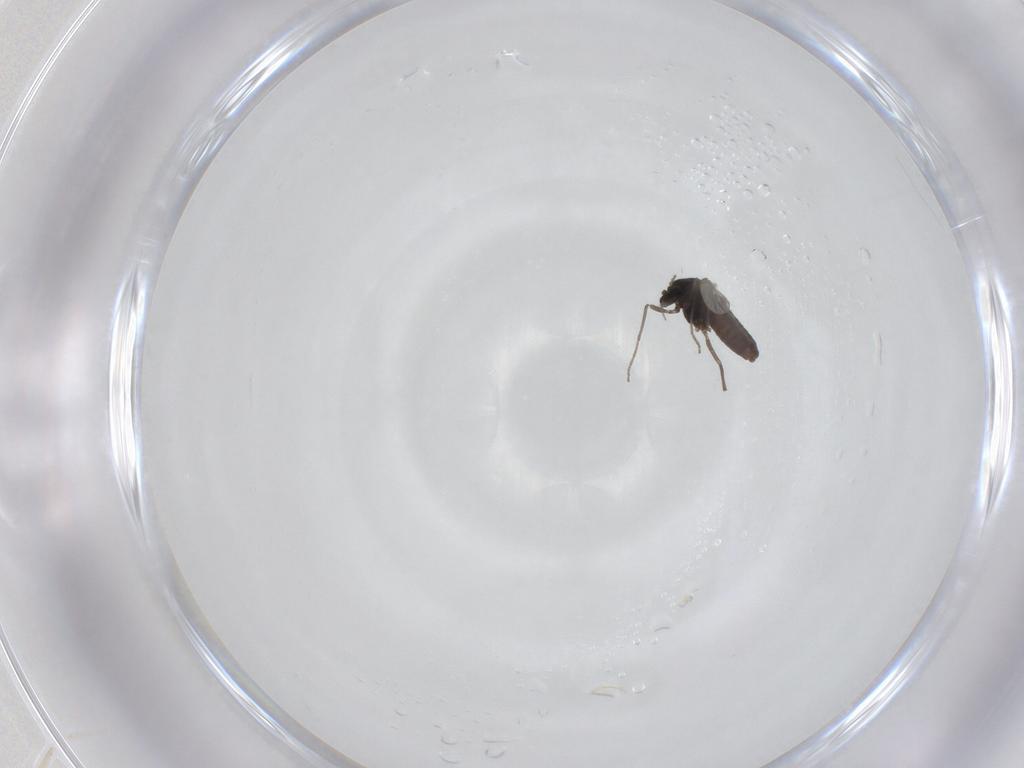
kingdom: Animalia
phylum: Arthropoda
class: Insecta
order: Diptera
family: Chironomidae
